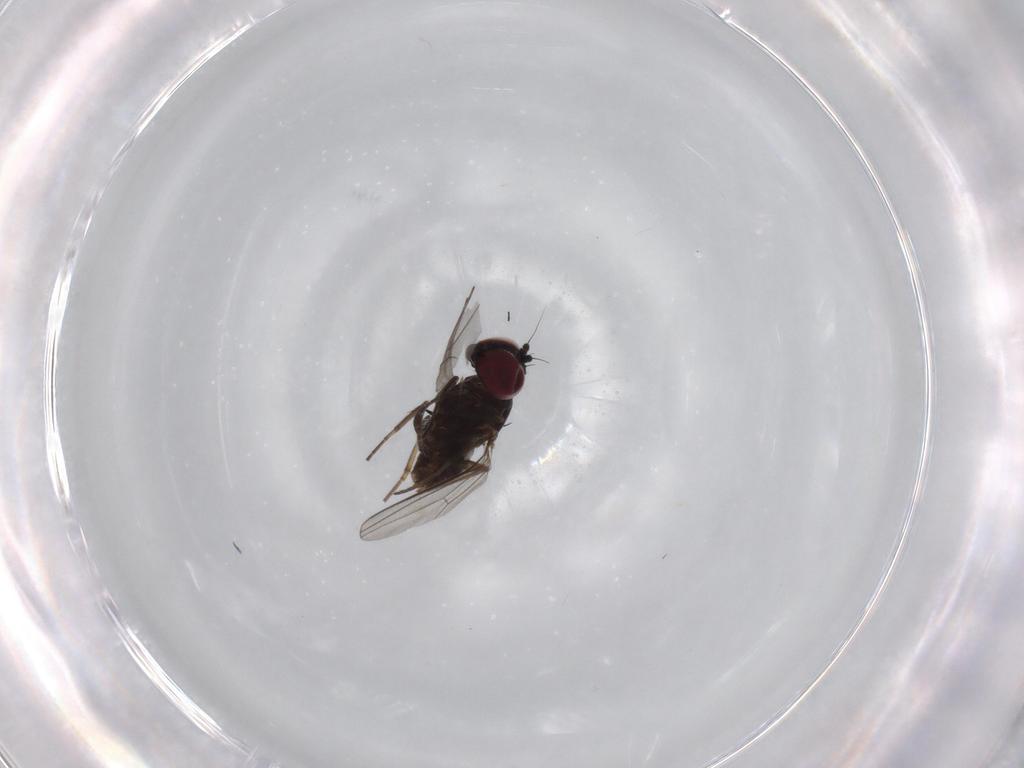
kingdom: Animalia
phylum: Arthropoda
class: Insecta
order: Diptera
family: Dolichopodidae
